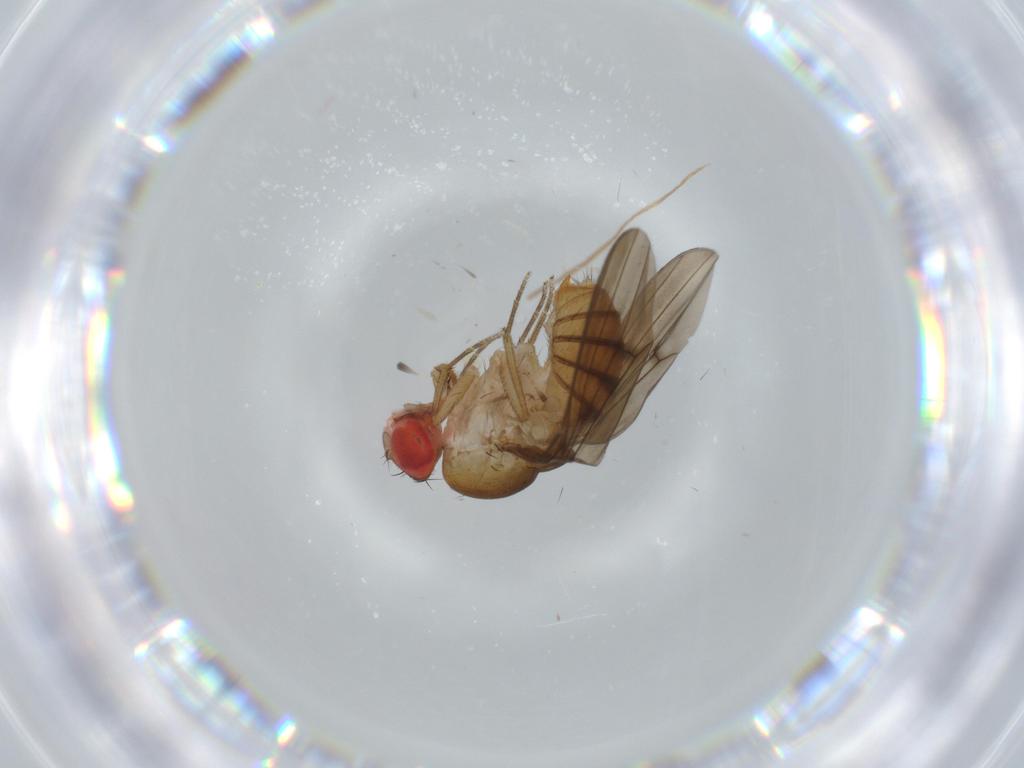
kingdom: Animalia
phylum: Arthropoda
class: Insecta
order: Diptera
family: Drosophilidae
